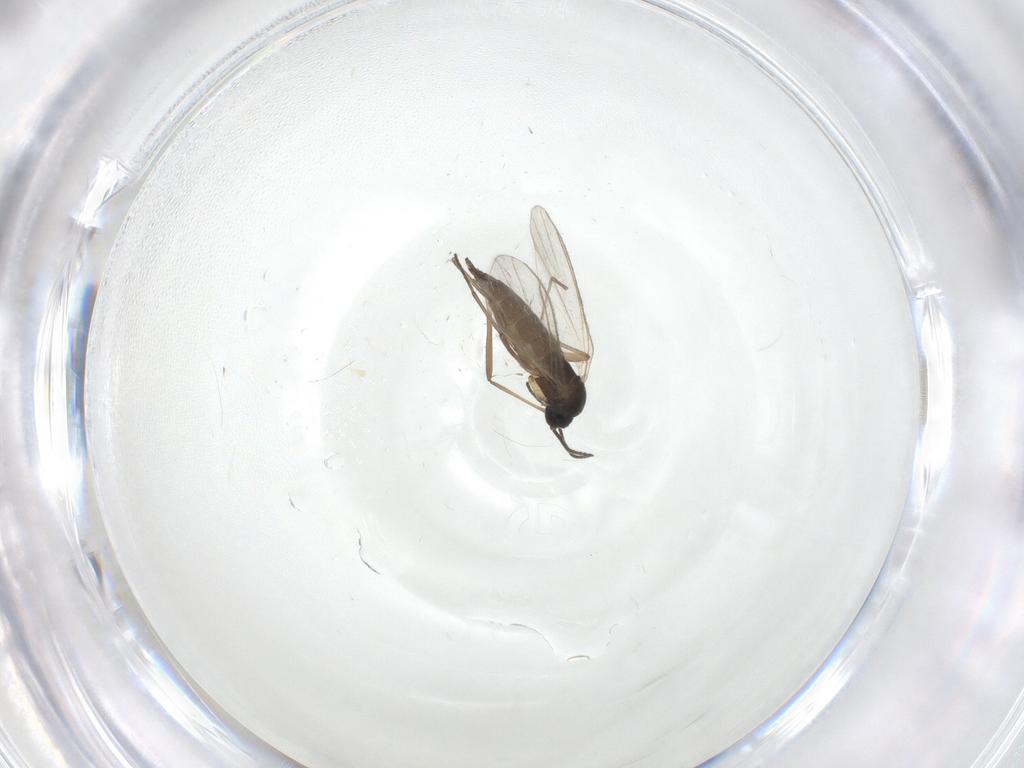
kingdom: Animalia
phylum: Arthropoda
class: Insecta
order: Diptera
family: Sciaridae
